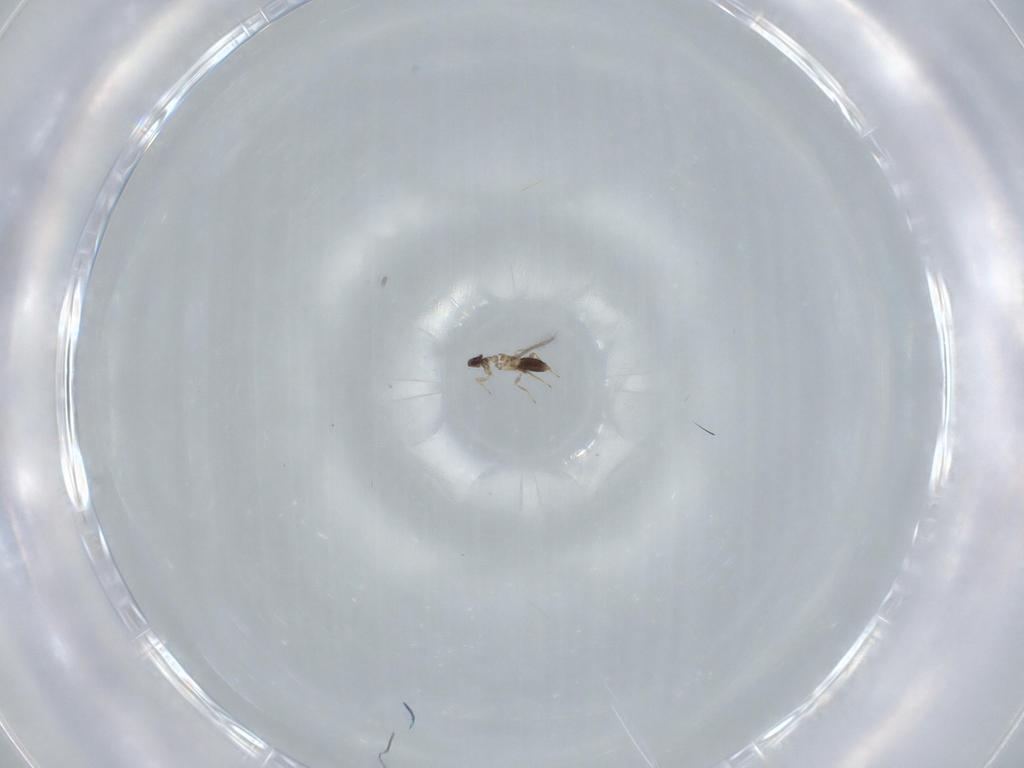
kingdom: Animalia
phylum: Arthropoda
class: Insecta
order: Hymenoptera
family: Mymaridae
